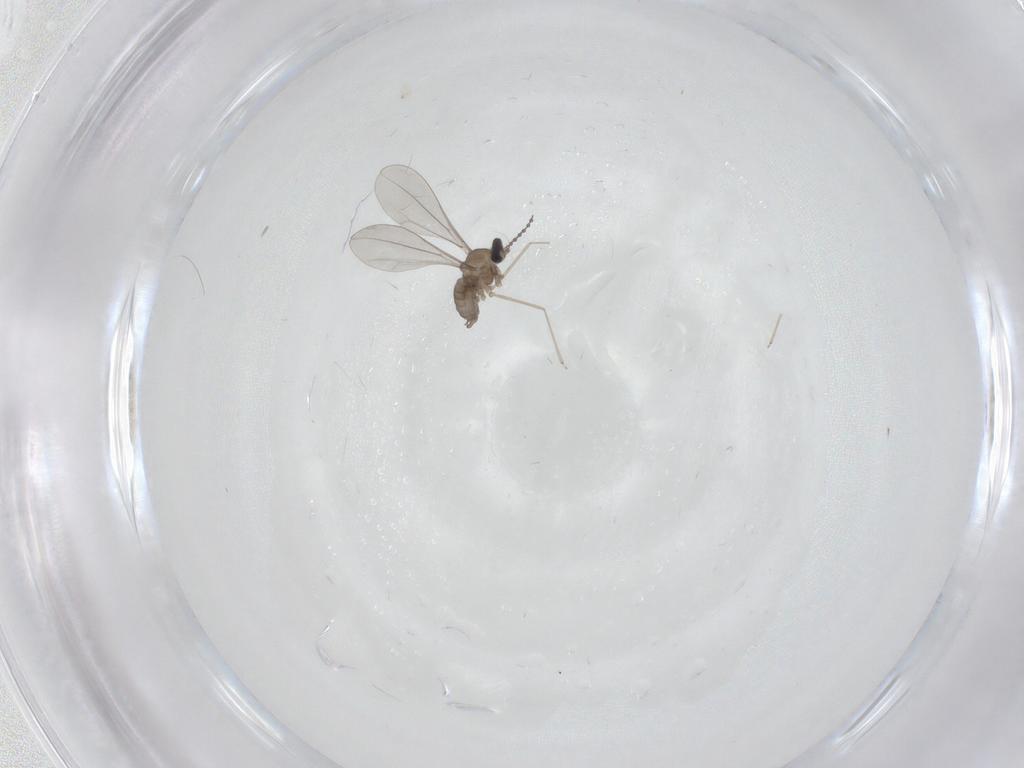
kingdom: Animalia
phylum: Arthropoda
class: Insecta
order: Diptera
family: Cecidomyiidae
